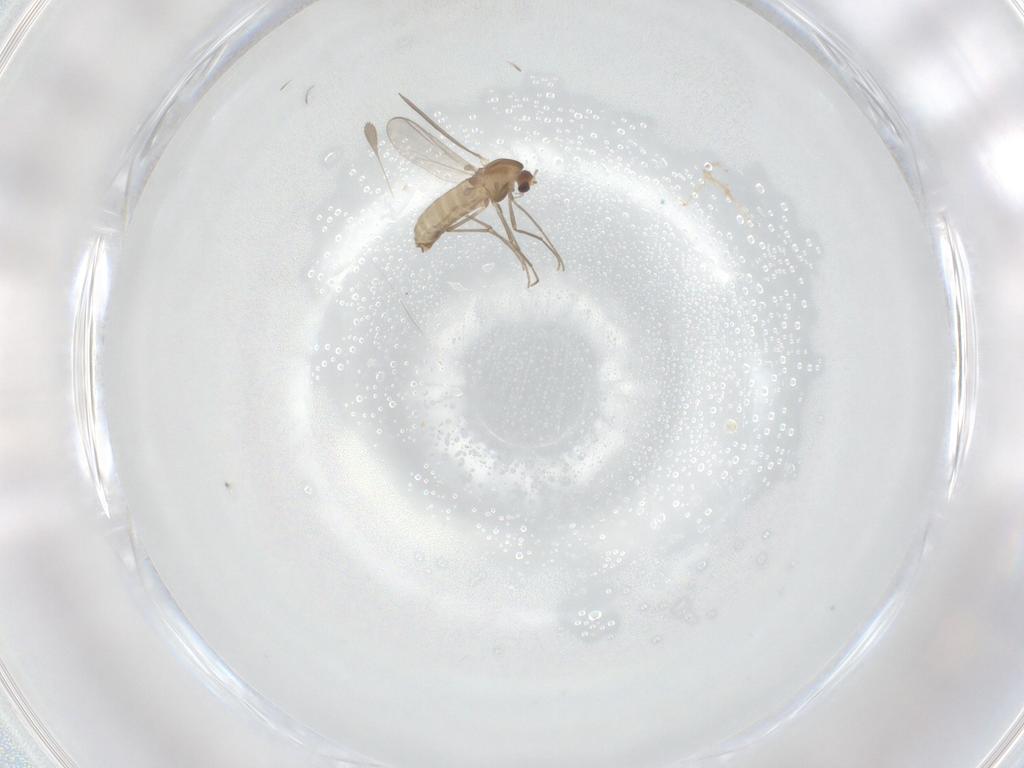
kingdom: Animalia
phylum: Arthropoda
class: Insecta
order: Diptera
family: Chironomidae
